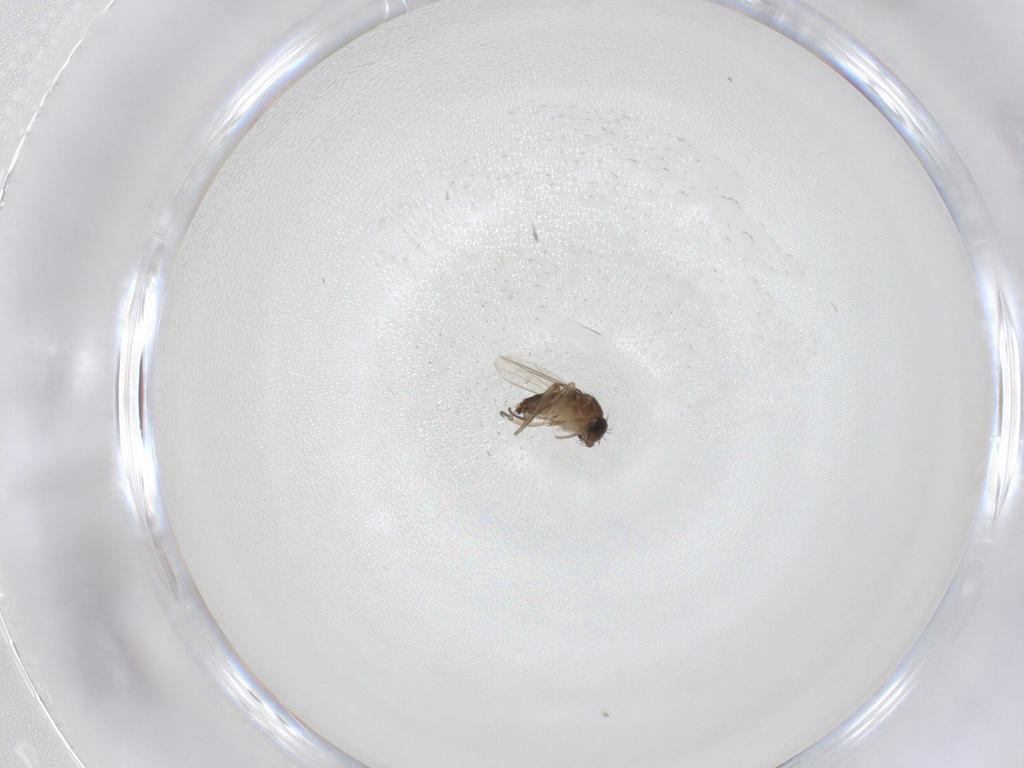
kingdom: Animalia
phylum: Arthropoda
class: Insecta
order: Diptera
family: Phoridae
